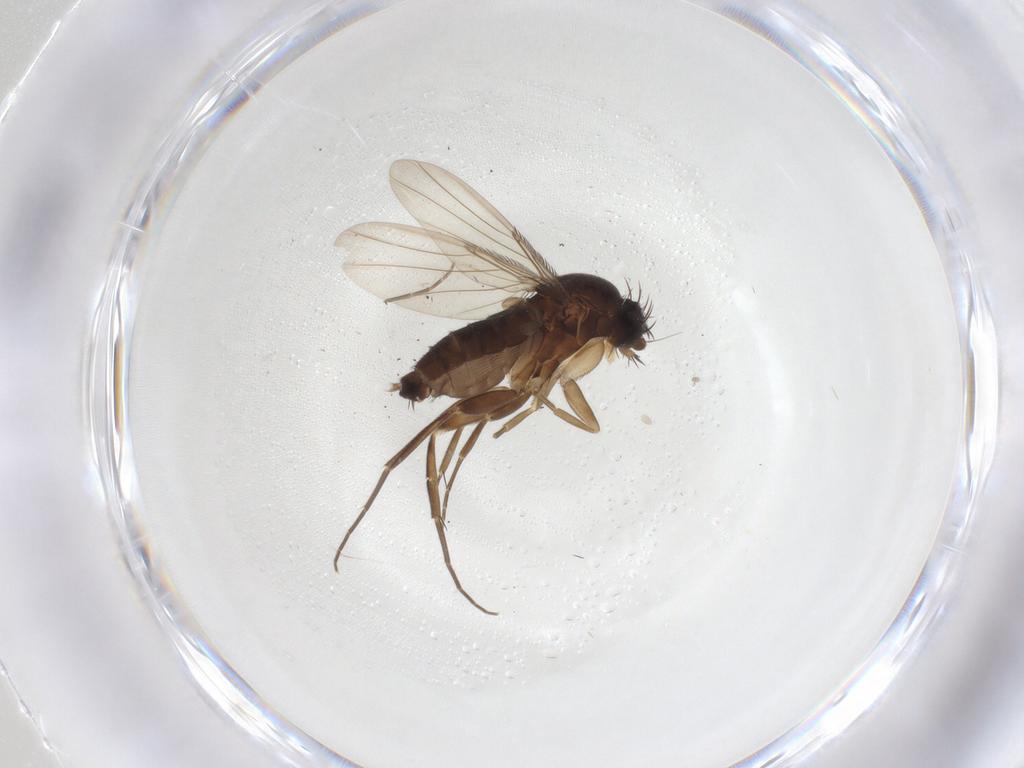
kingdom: Animalia
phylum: Arthropoda
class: Insecta
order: Diptera
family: Phoridae
